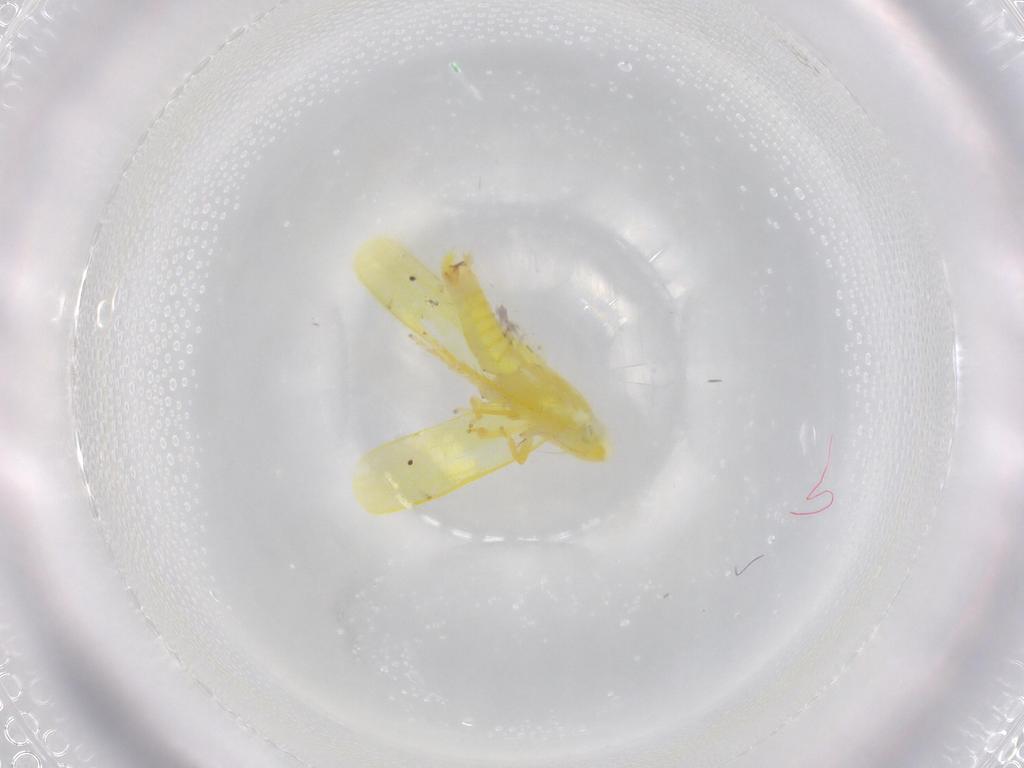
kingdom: Animalia
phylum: Arthropoda
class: Insecta
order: Hemiptera
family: Cicadellidae
